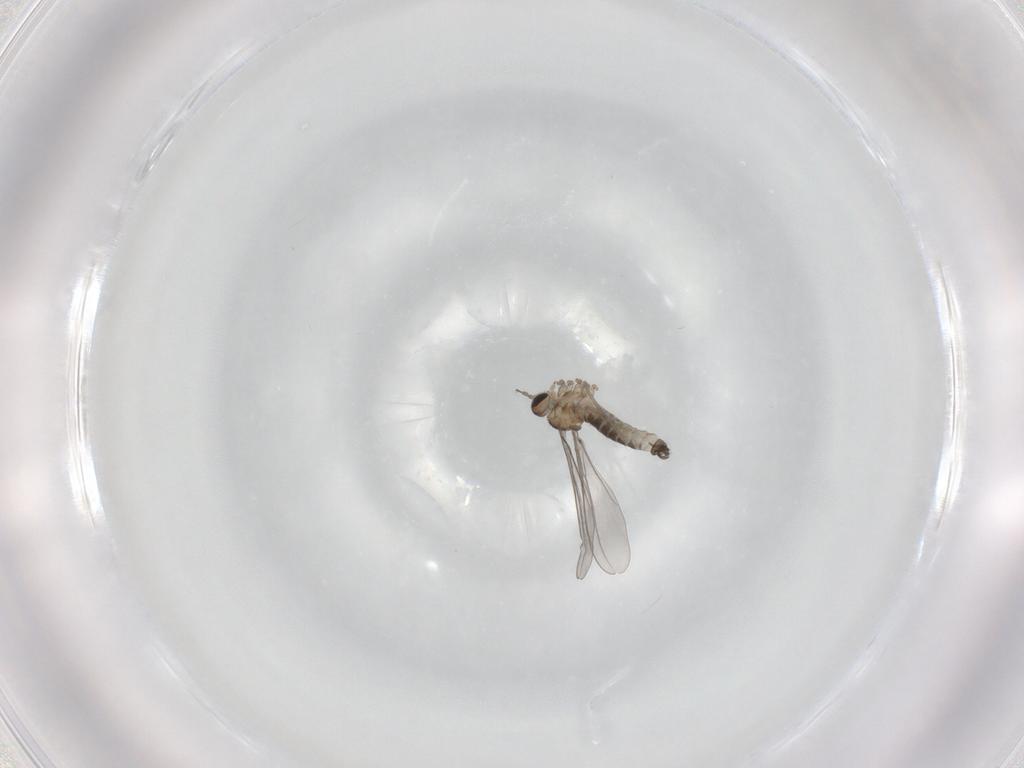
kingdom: Animalia
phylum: Arthropoda
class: Insecta
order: Diptera
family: Cecidomyiidae
